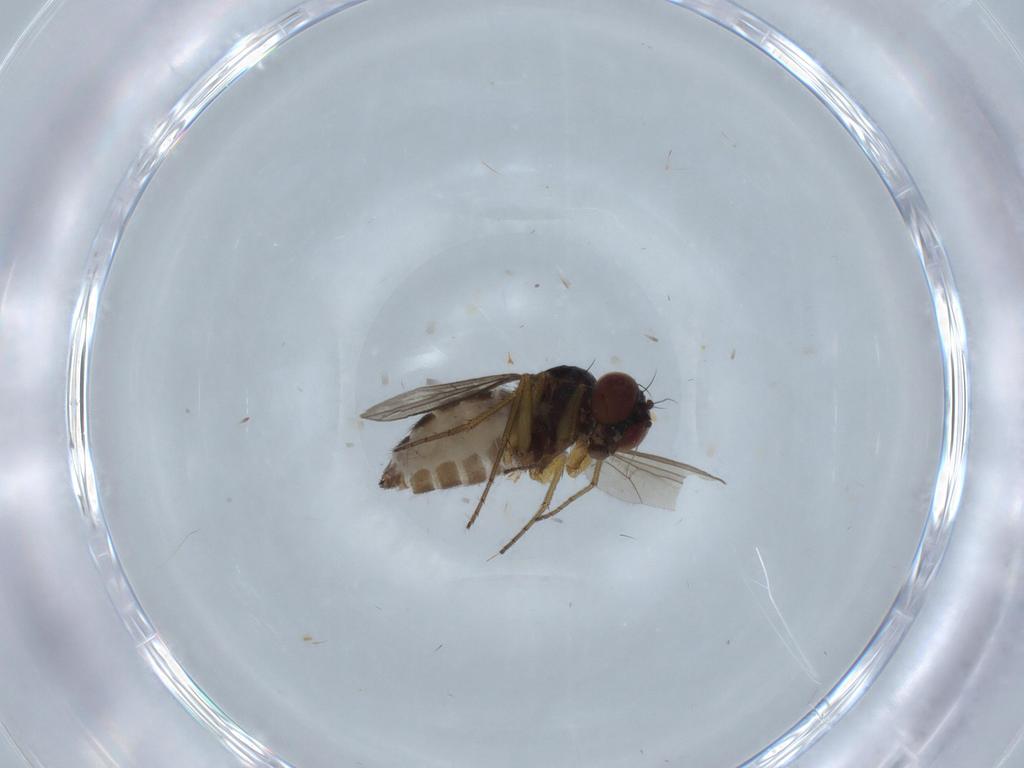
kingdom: Animalia
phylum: Arthropoda
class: Insecta
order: Diptera
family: Dolichopodidae
